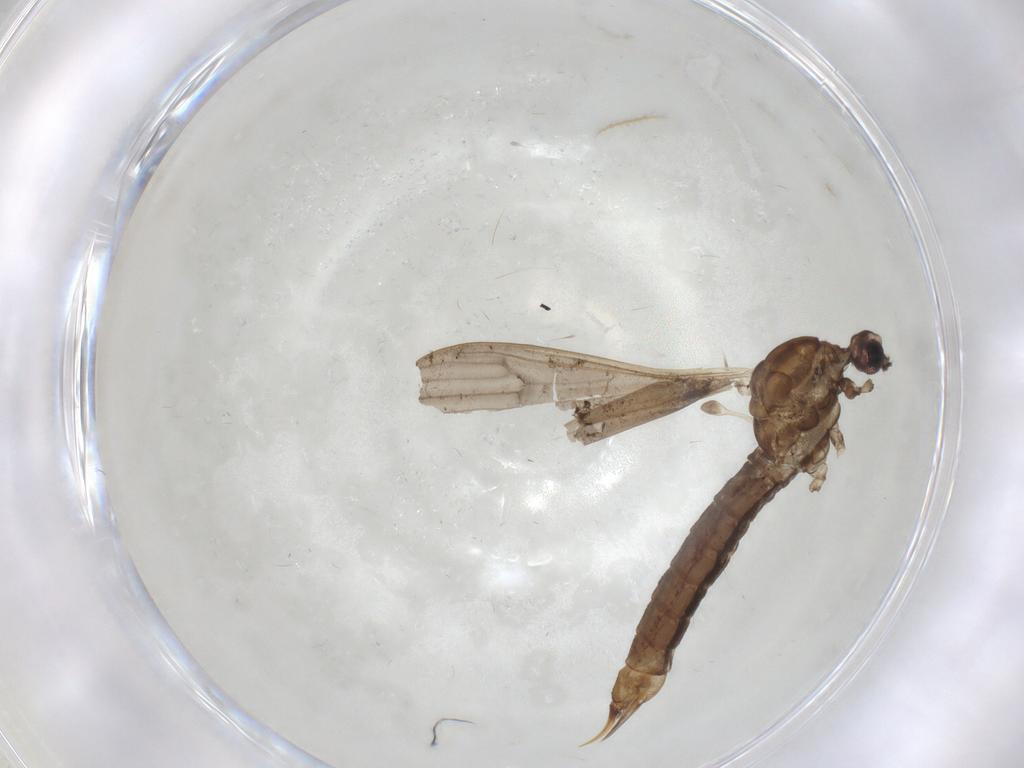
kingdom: Animalia
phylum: Arthropoda
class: Insecta
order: Diptera
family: Limoniidae
